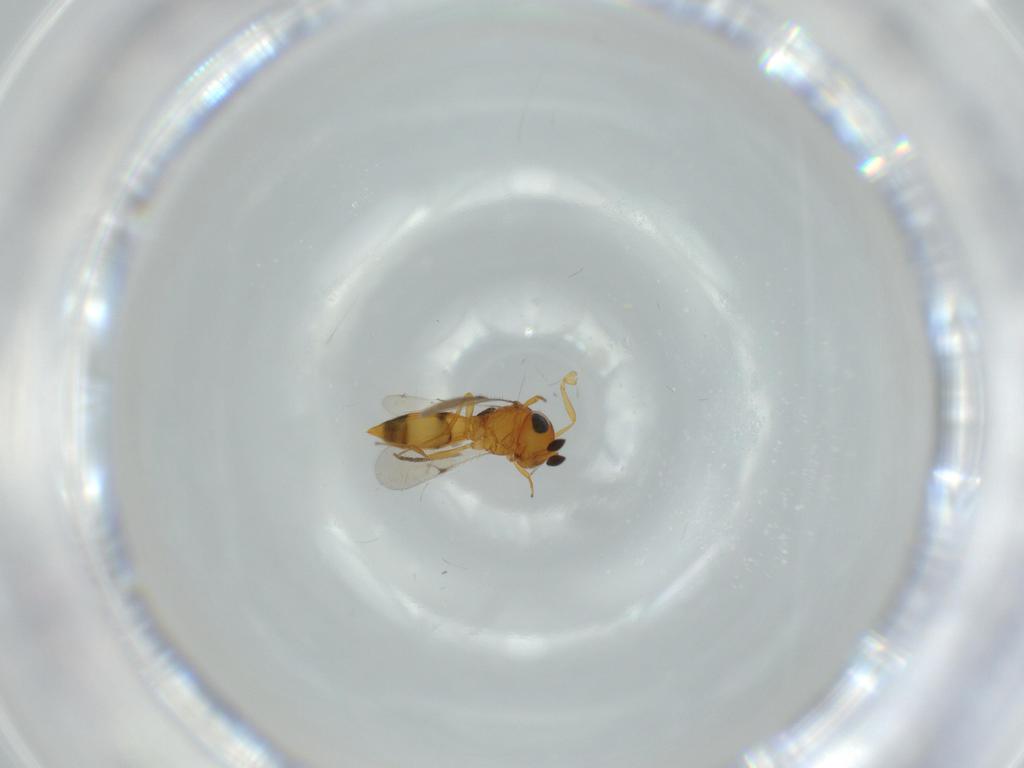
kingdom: Animalia
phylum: Arthropoda
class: Insecta
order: Hymenoptera
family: Scelionidae
